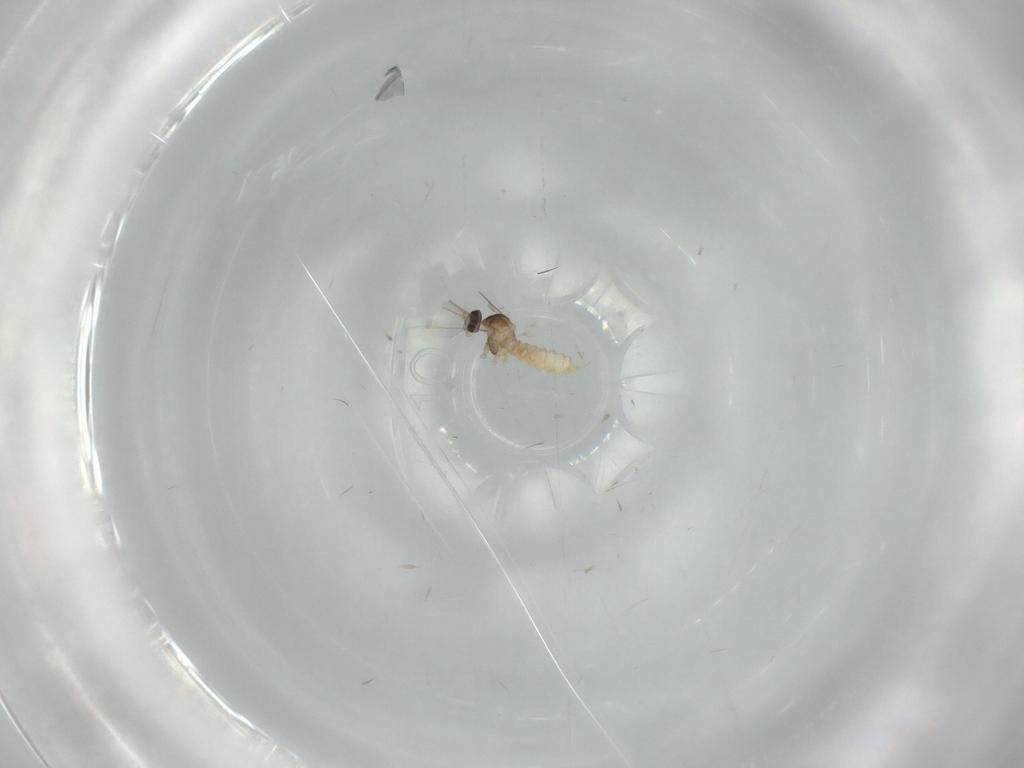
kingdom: Animalia
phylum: Arthropoda
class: Insecta
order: Diptera
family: Cecidomyiidae
